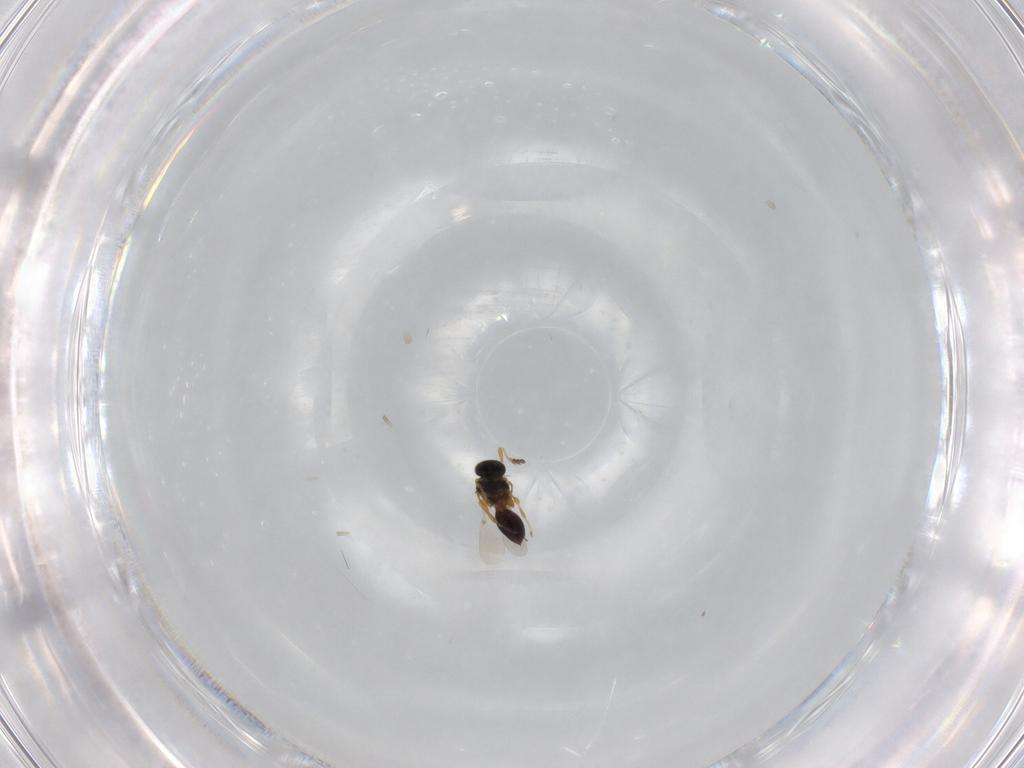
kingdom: Animalia
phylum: Arthropoda
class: Insecta
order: Hymenoptera
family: Platygastridae
